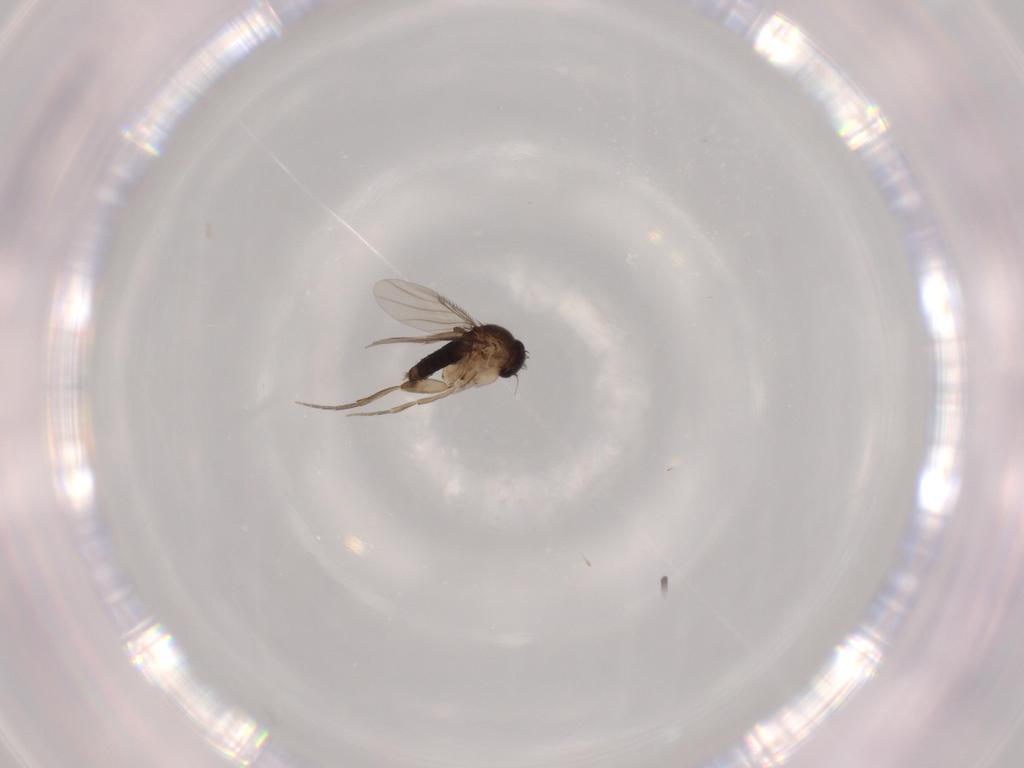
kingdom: Animalia
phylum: Arthropoda
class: Insecta
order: Diptera
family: Phoridae
